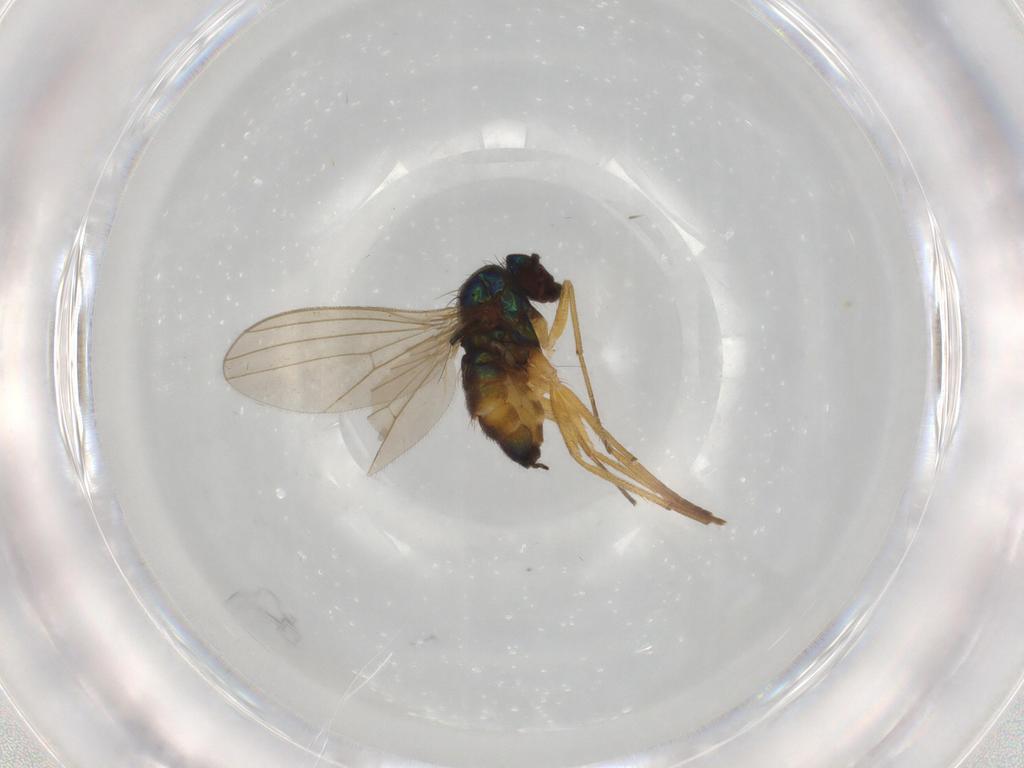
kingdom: Animalia
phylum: Arthropoda
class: Insecta
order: Diptera
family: Dolichopodidae
